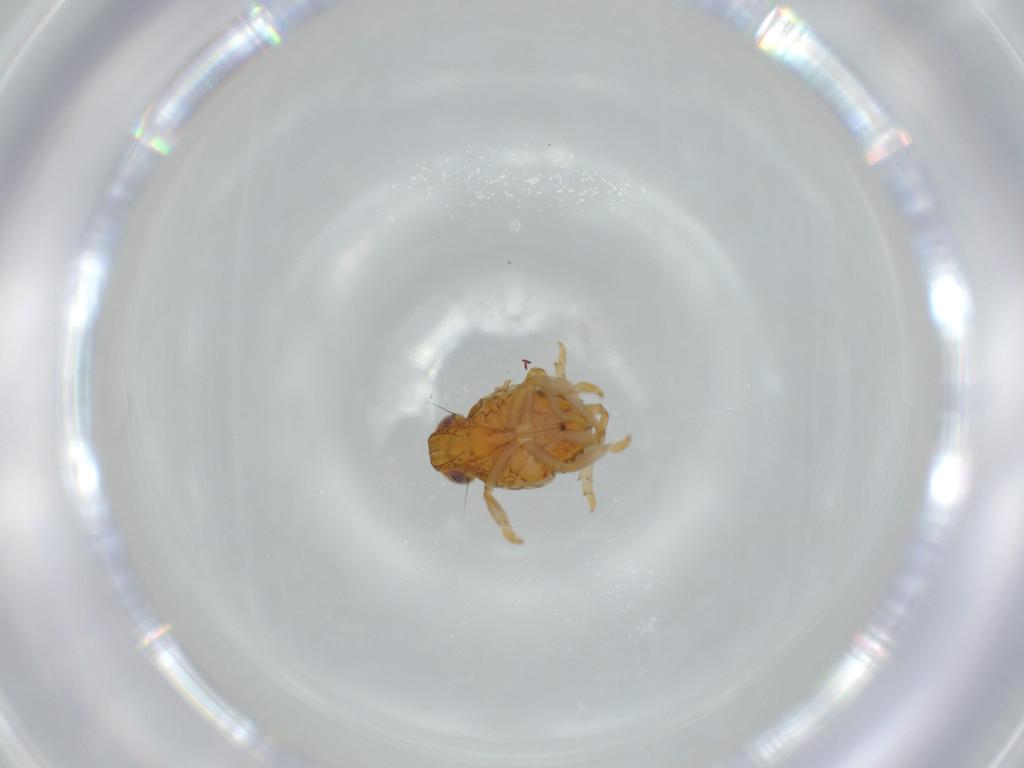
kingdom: Animalia
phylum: Arthropoda
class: Insecta
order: Hemiptera
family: Issidae
